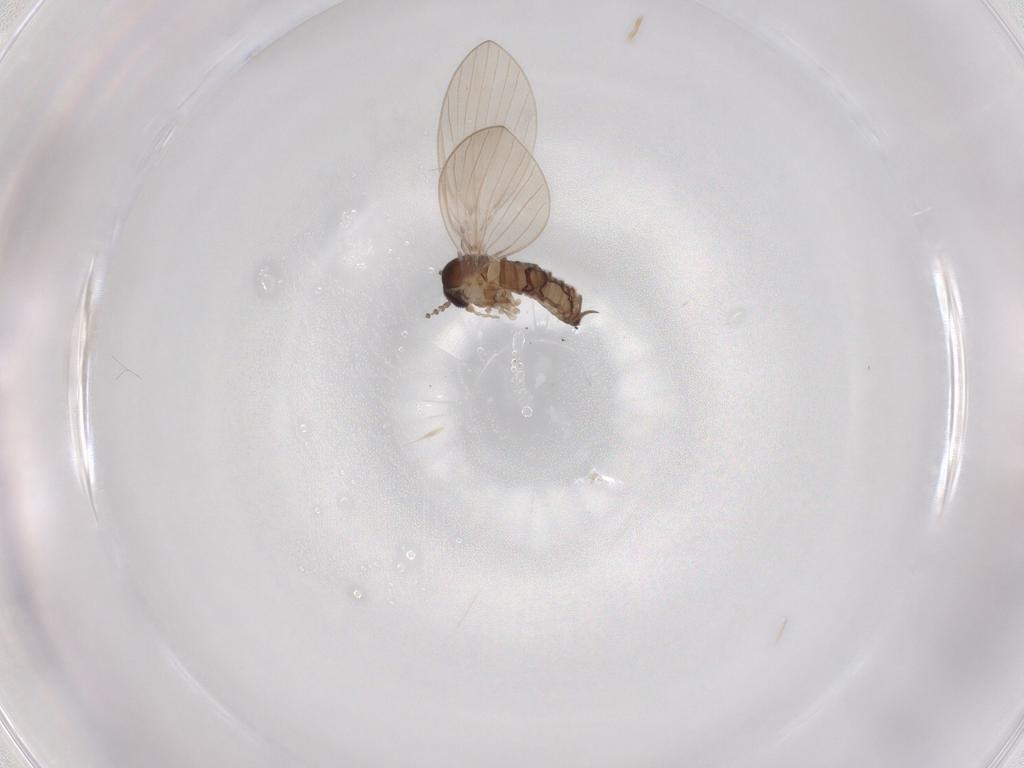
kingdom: Animalia
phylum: Arthropoda
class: Insecta
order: Diptera
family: Psychodidae
